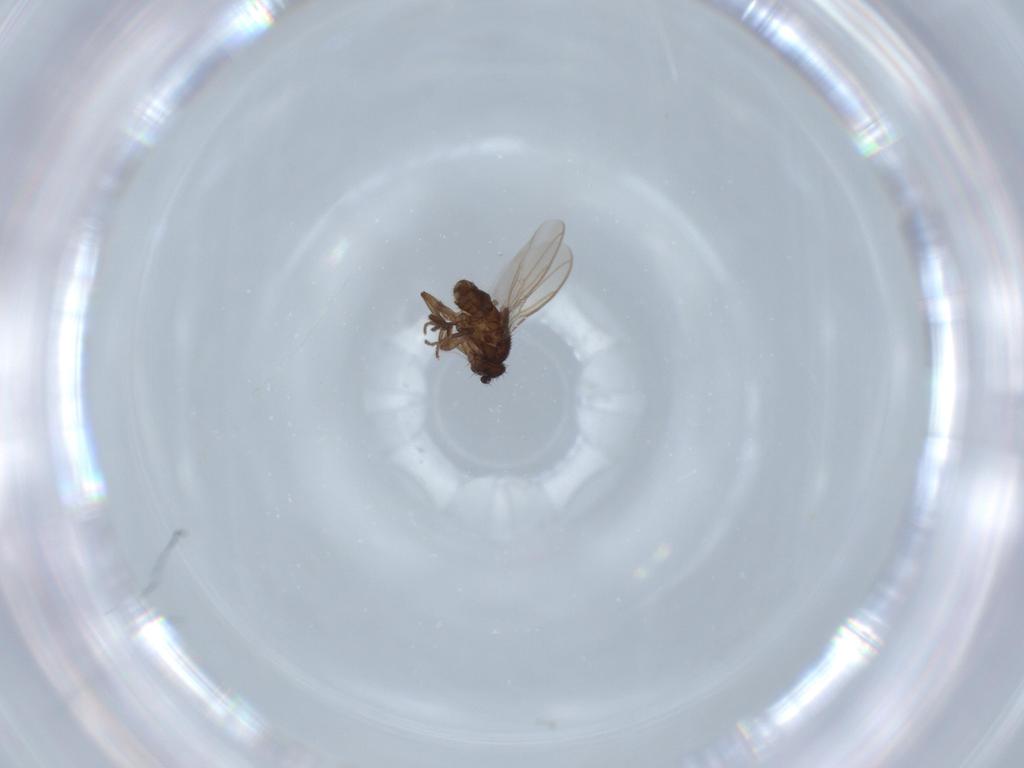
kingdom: Animalia
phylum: Arthropoda
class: Insecta
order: Diptera
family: Sphaeroceridae
